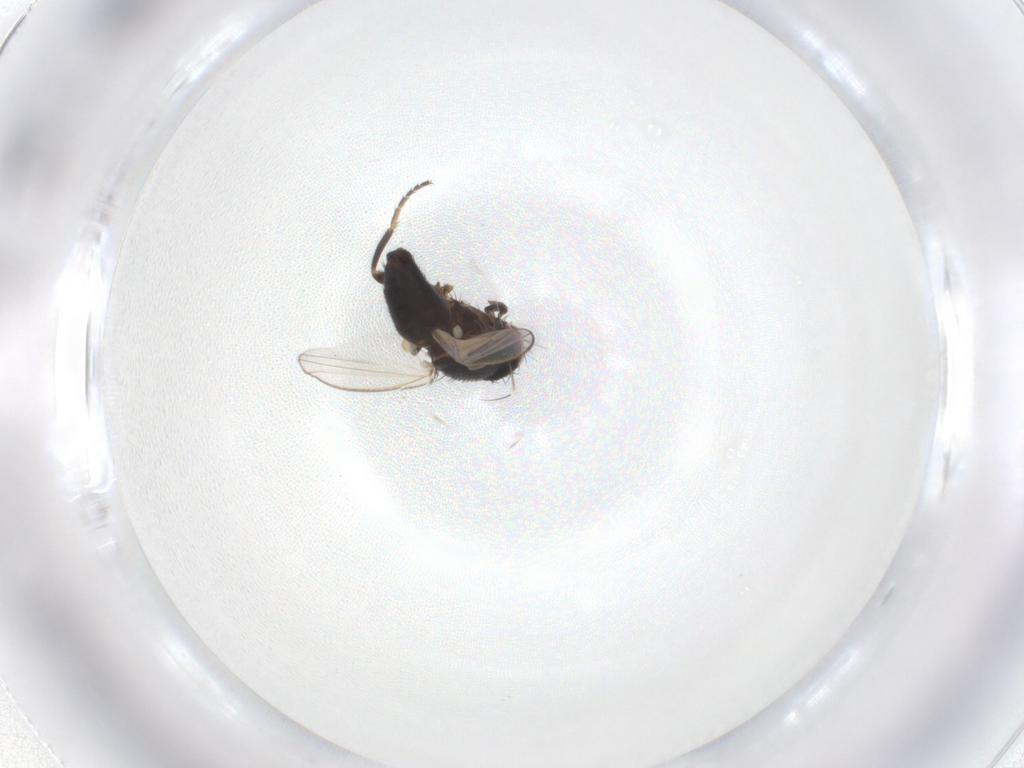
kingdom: Animalia
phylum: Arthropoda
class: Insecta
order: Diptera
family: Milichiidae
